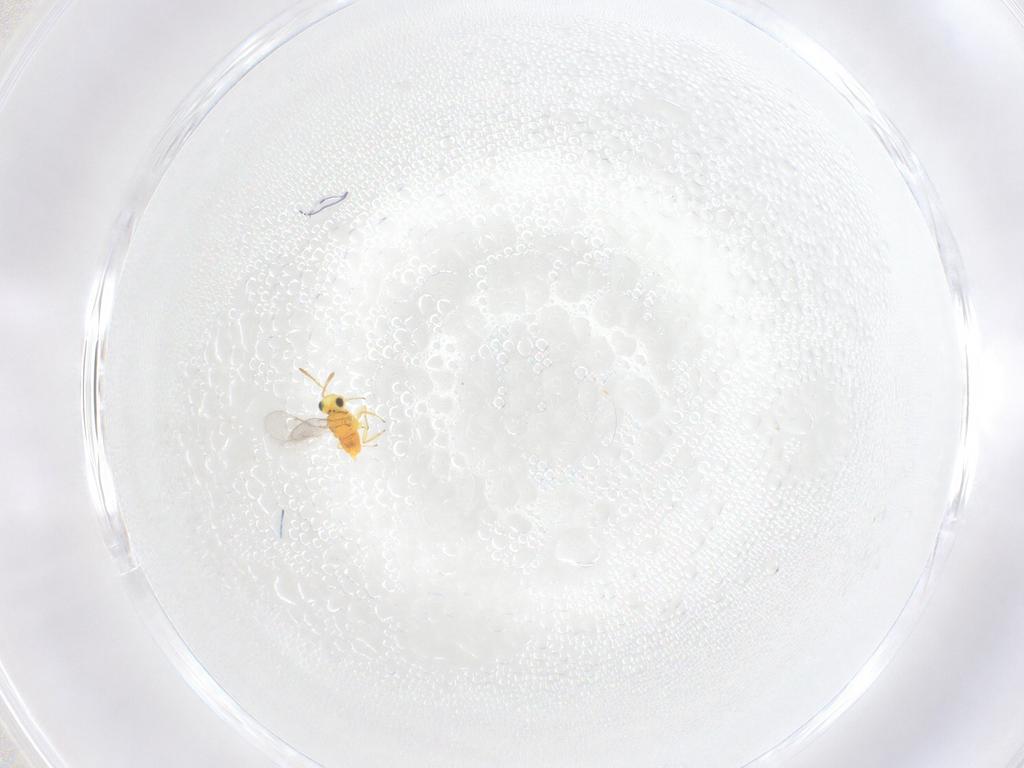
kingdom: Animalia
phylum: Arthropoda
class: Insecta
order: Hymenoptera
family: Aphelinidae
